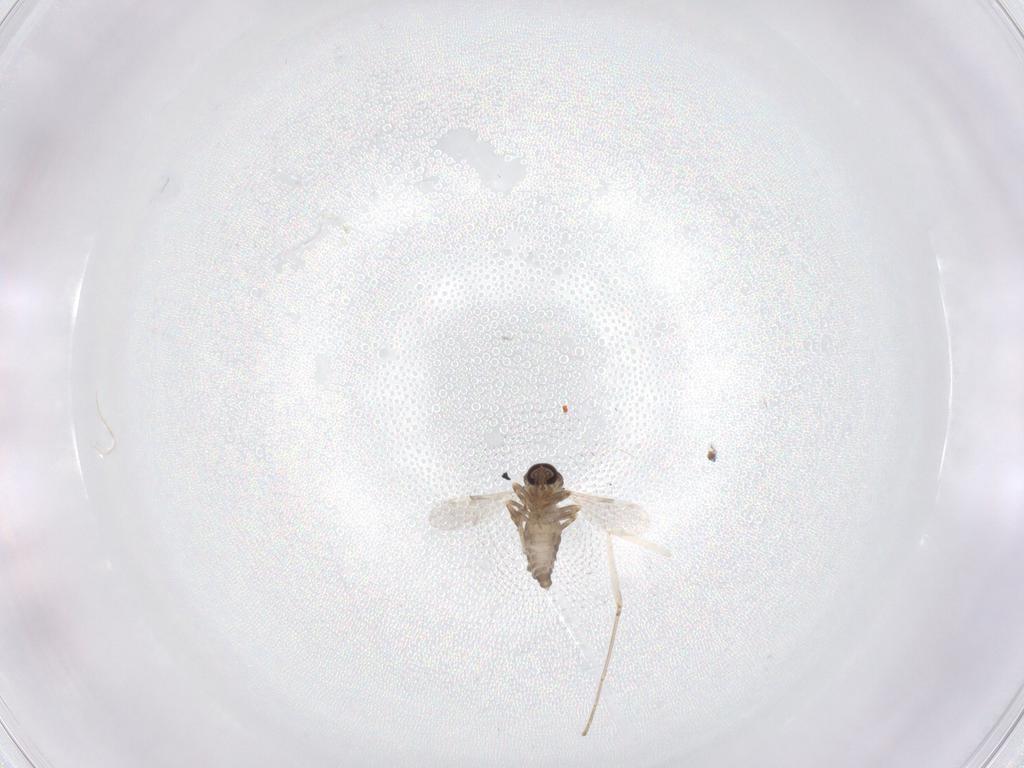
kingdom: Animalia
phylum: Arthropoda
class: Insecta
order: Diptera
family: Ceratopogonidae
